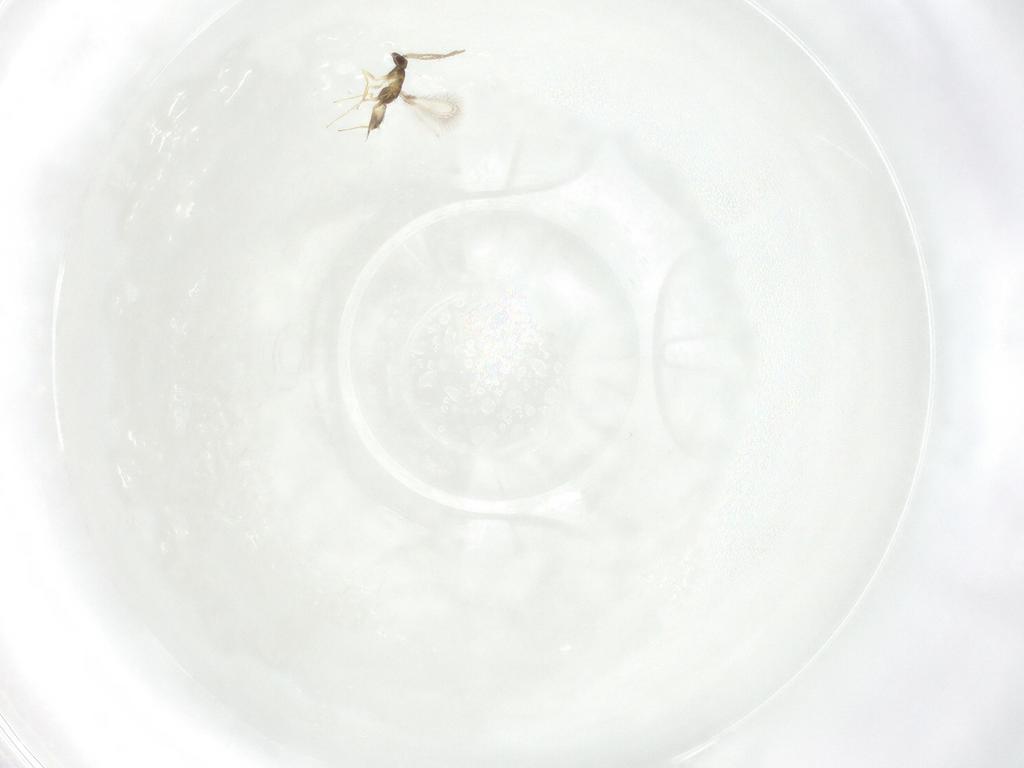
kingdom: Animalia
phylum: Arthropoda
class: Insecta
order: Hymenoptera
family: Mymaridae
